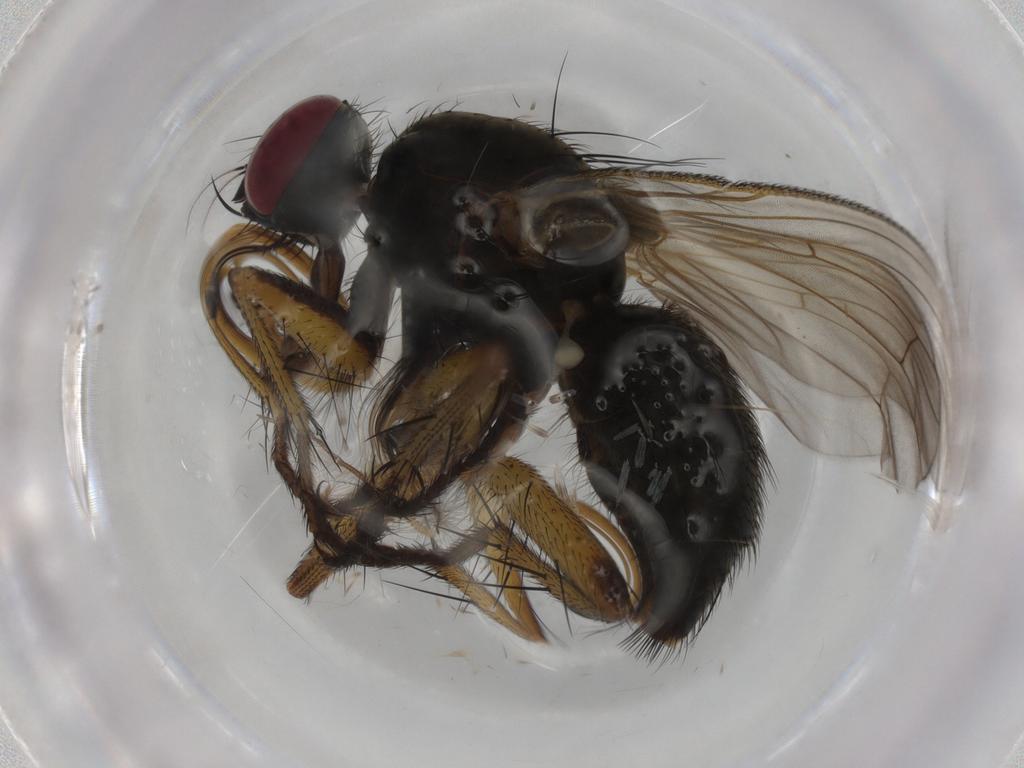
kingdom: Animalia
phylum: Arthropoda
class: Insecta
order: Diptera
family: Chironomidae
